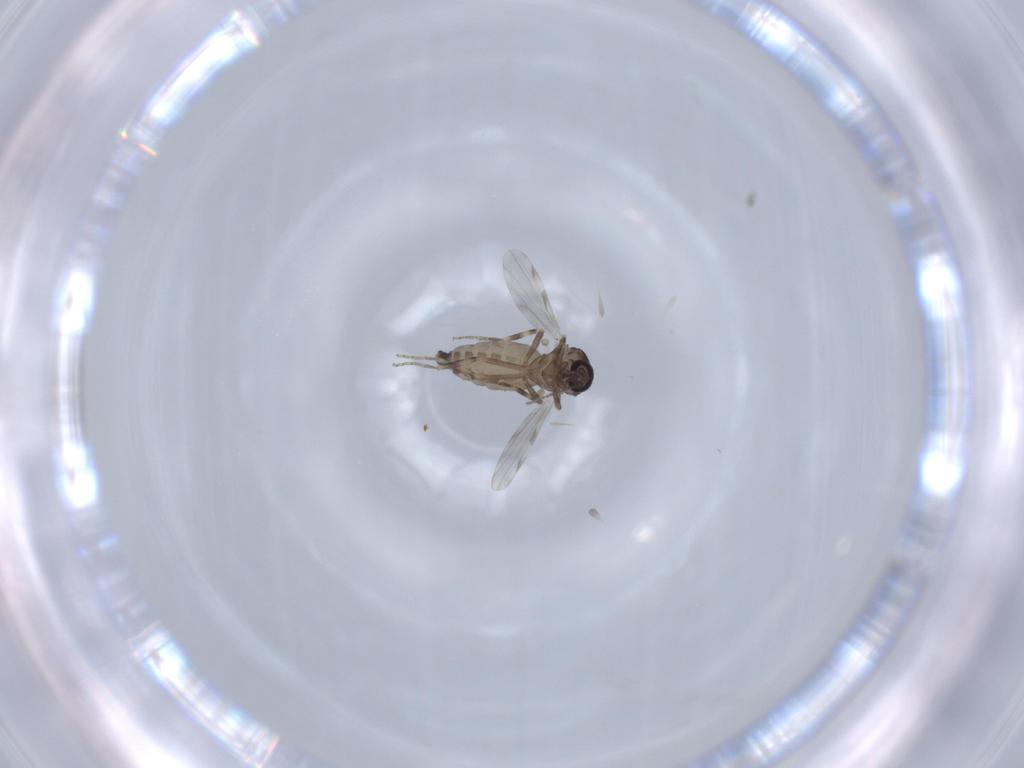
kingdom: Animalia
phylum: Arthropoda
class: Insecta
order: Diptera
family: Ceratopogonidae
